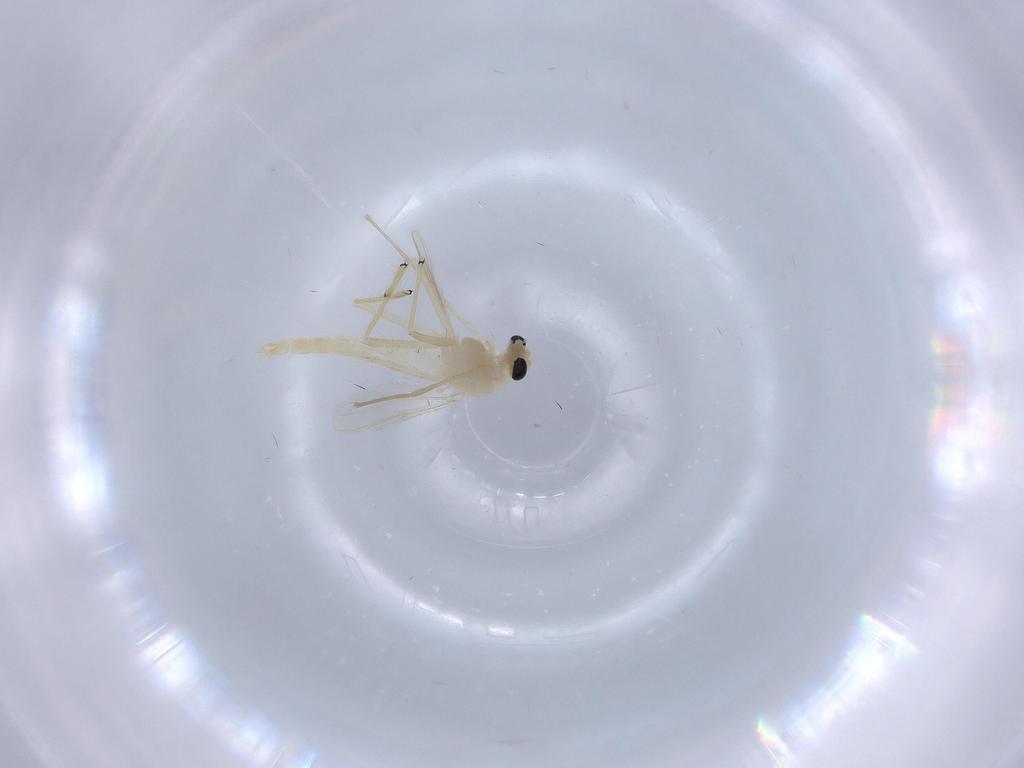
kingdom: Animalia
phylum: Arthropoda
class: Insecta
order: Diptera
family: Chironomidae
